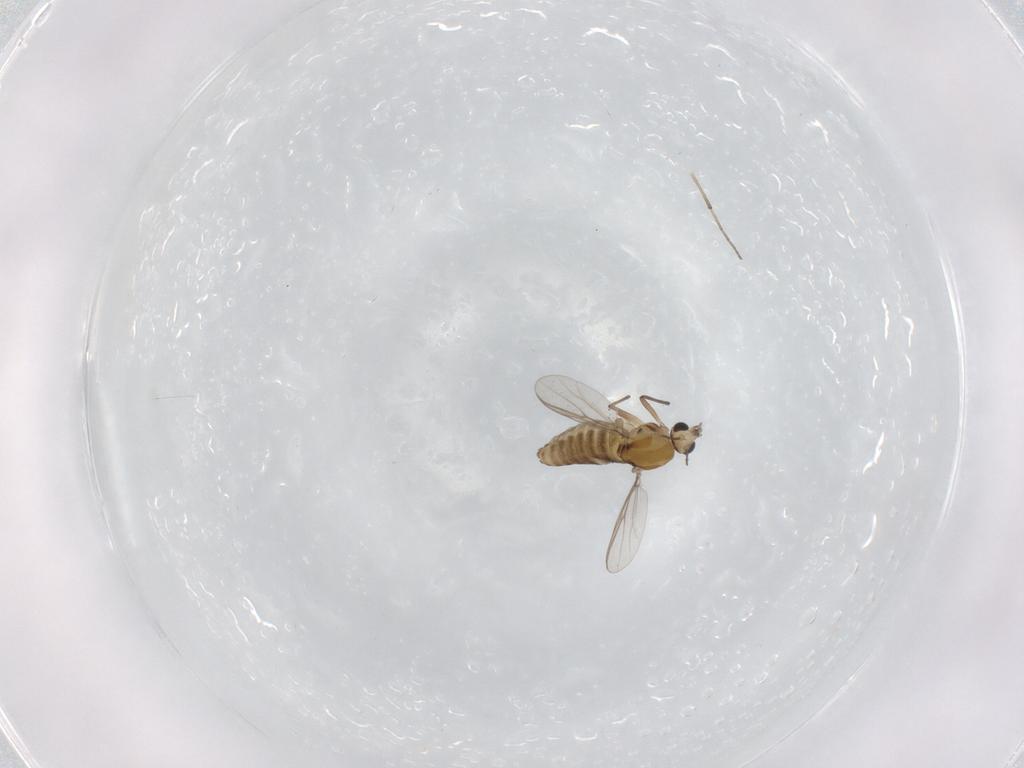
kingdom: Animalia
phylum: Arthropoda
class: Insecta
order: Diptera
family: Chironomidae
